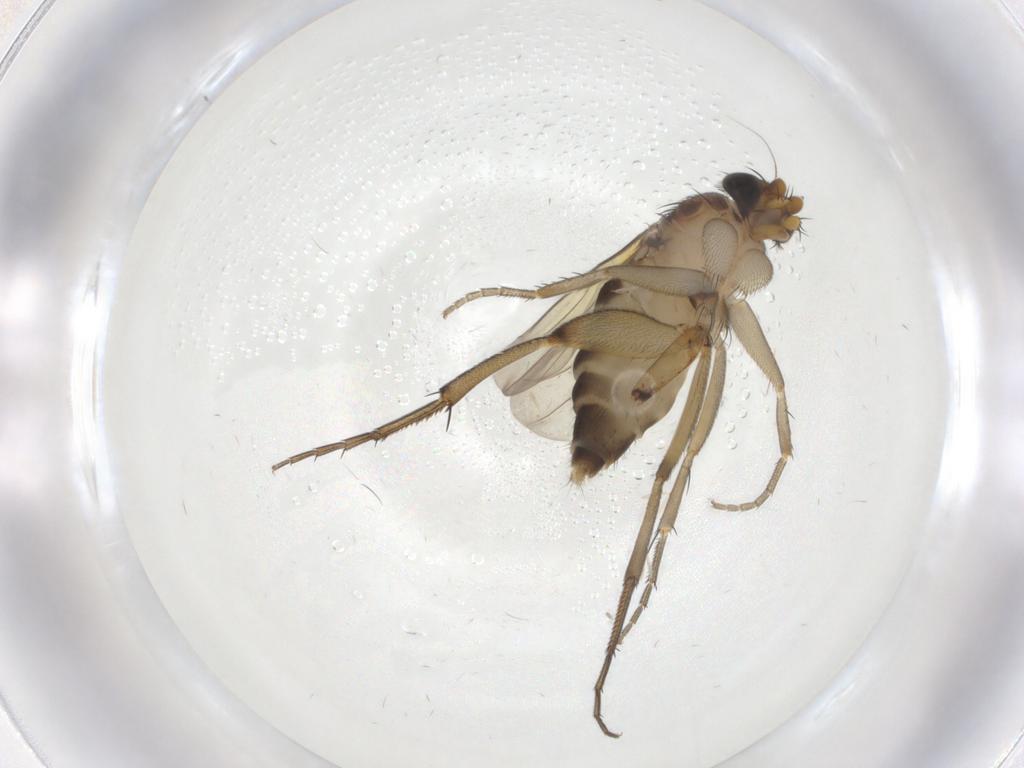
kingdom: Animalia
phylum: Arthropoda
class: Insecta
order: Diptera
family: Phoridae
